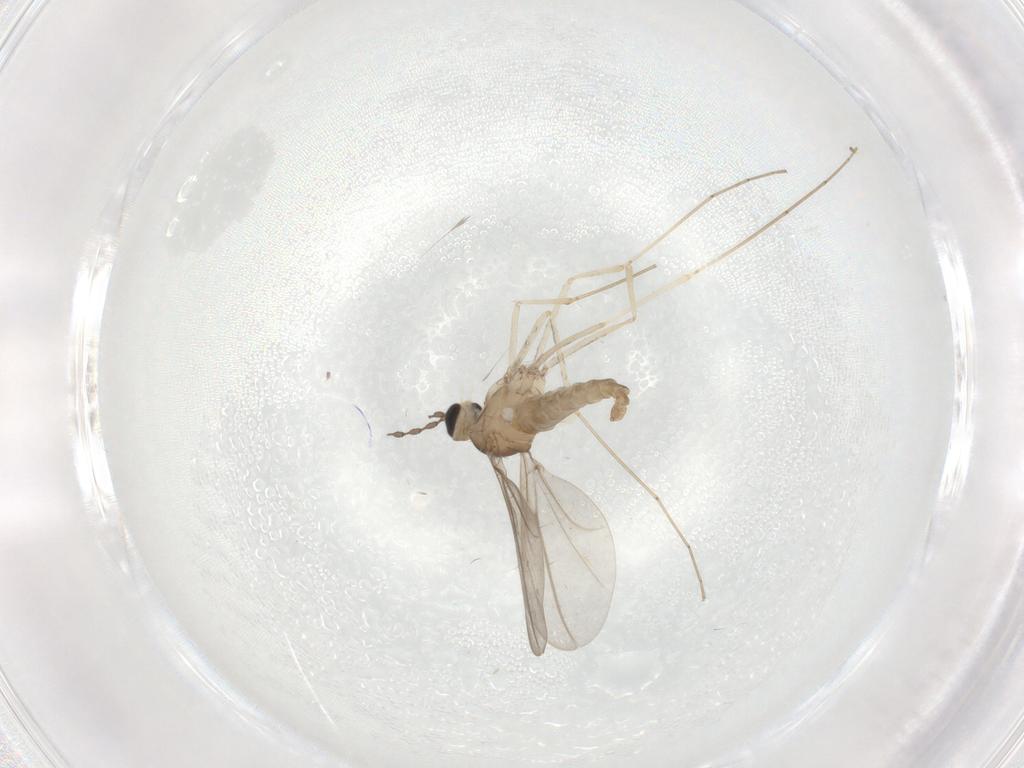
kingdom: Animalia
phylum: Arthropoda
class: Insecta
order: Diptera
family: Cecidomyiidae
